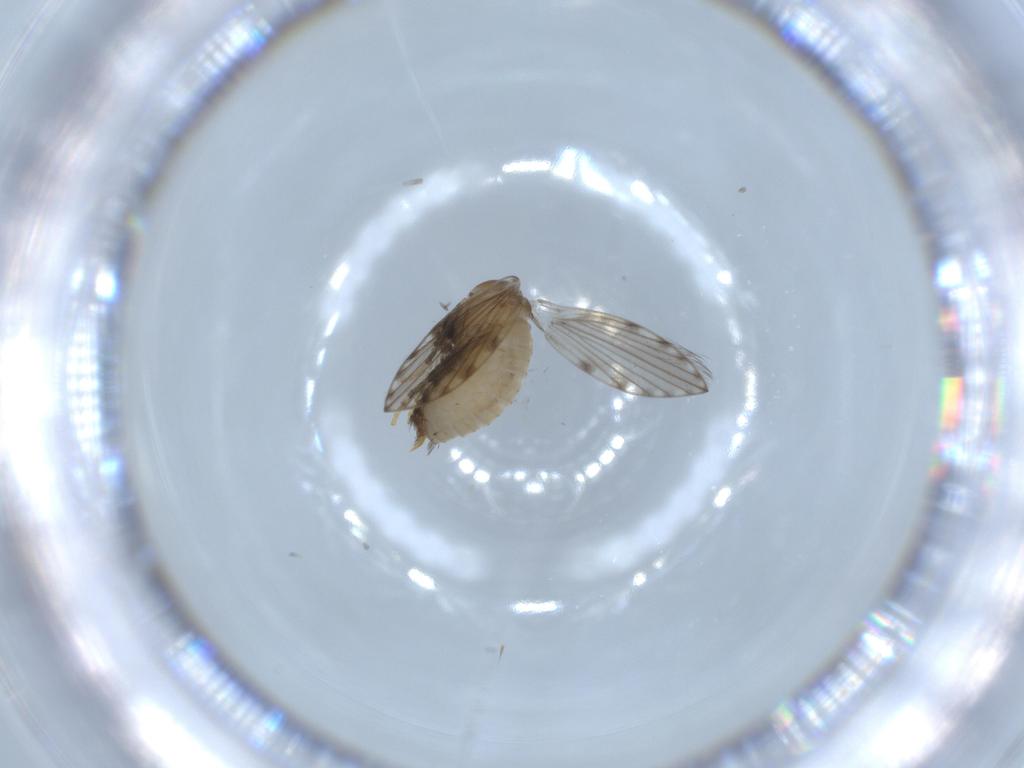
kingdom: Animalia
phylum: Arthropoda
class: Insecta
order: Diptera
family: Psychodidae
